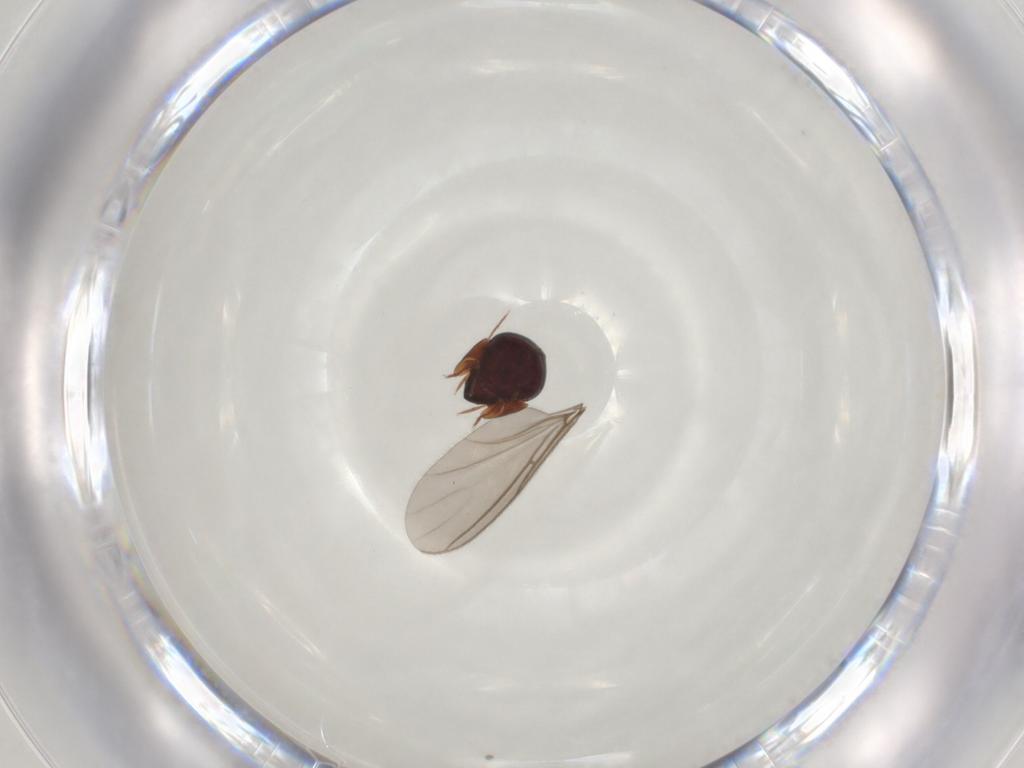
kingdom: Animalia
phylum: Arthropoda
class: Arachnida
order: Sarcoptiformes
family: Galumnidae
